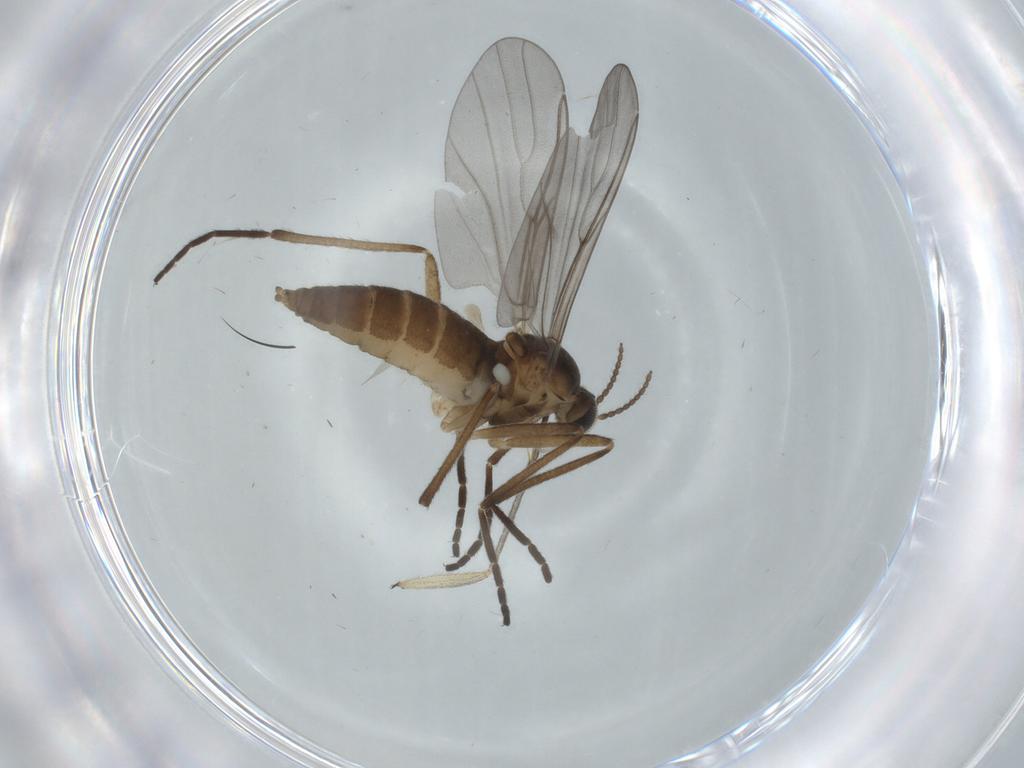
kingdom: Animalia
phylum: Arthropoda
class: Insecta
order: Diptera
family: Cecidomyiidae
